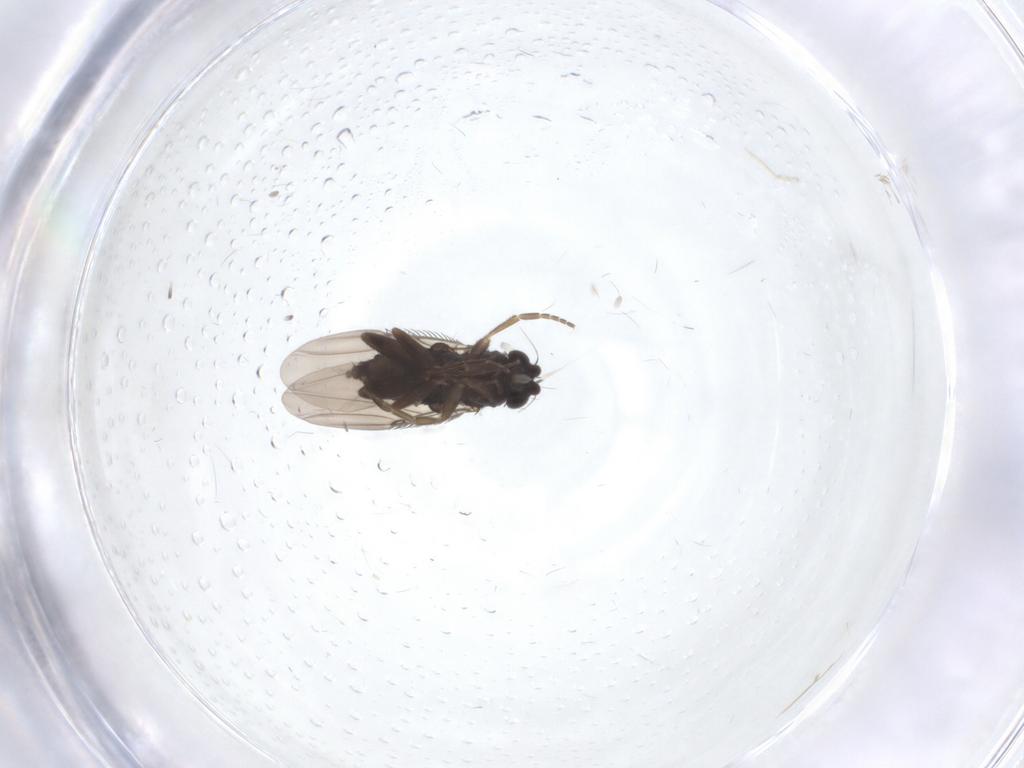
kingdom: Animalia
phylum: Arthropoda
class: Insecta
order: Diptera
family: Phoridae
